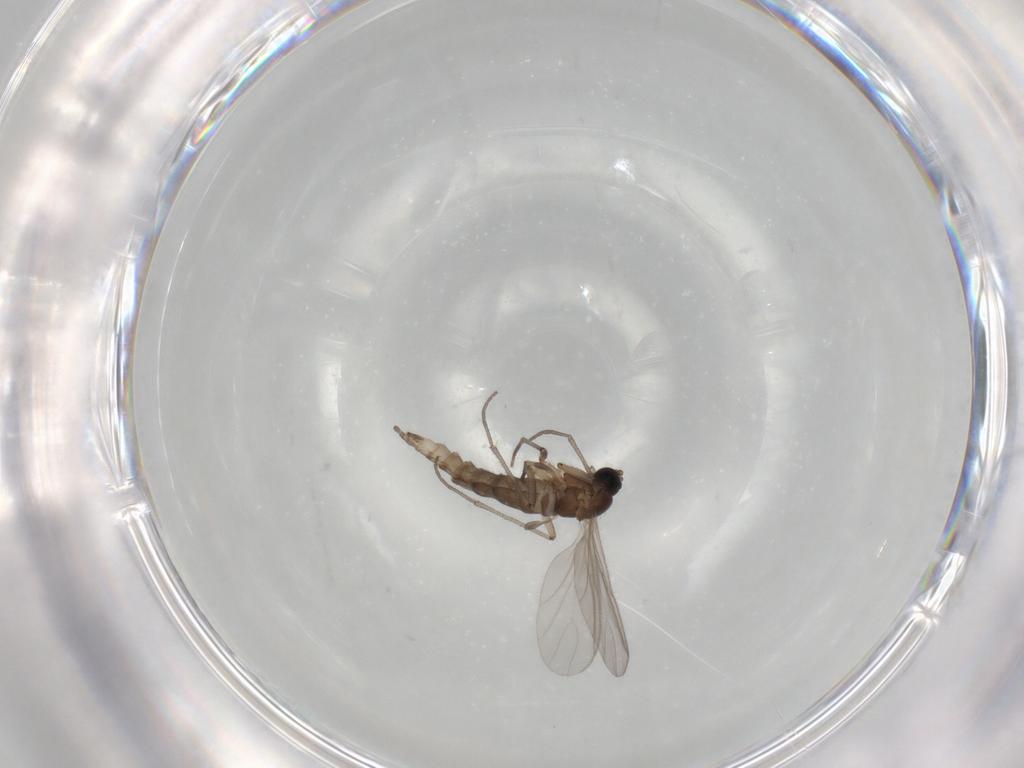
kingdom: Animalia
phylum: Arthropoda
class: Insecta
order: Diptera
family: Sciaridae
